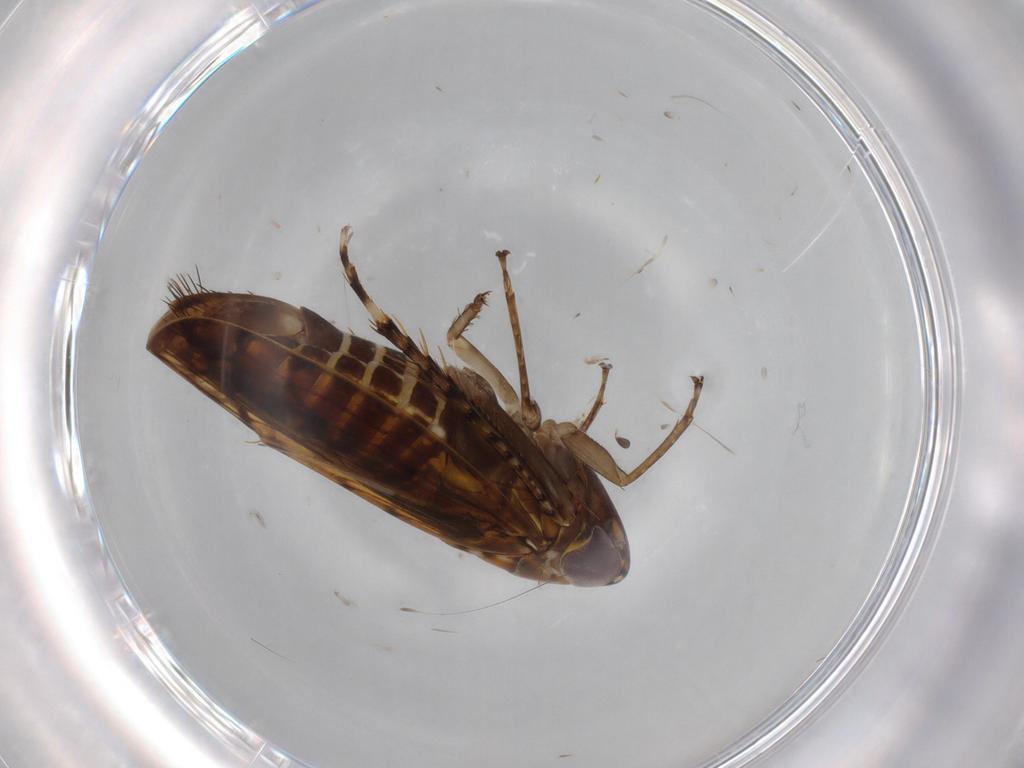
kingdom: Animalia
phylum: Arthropoda
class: Insecta
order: Hemiptera
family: Cicadellidae
